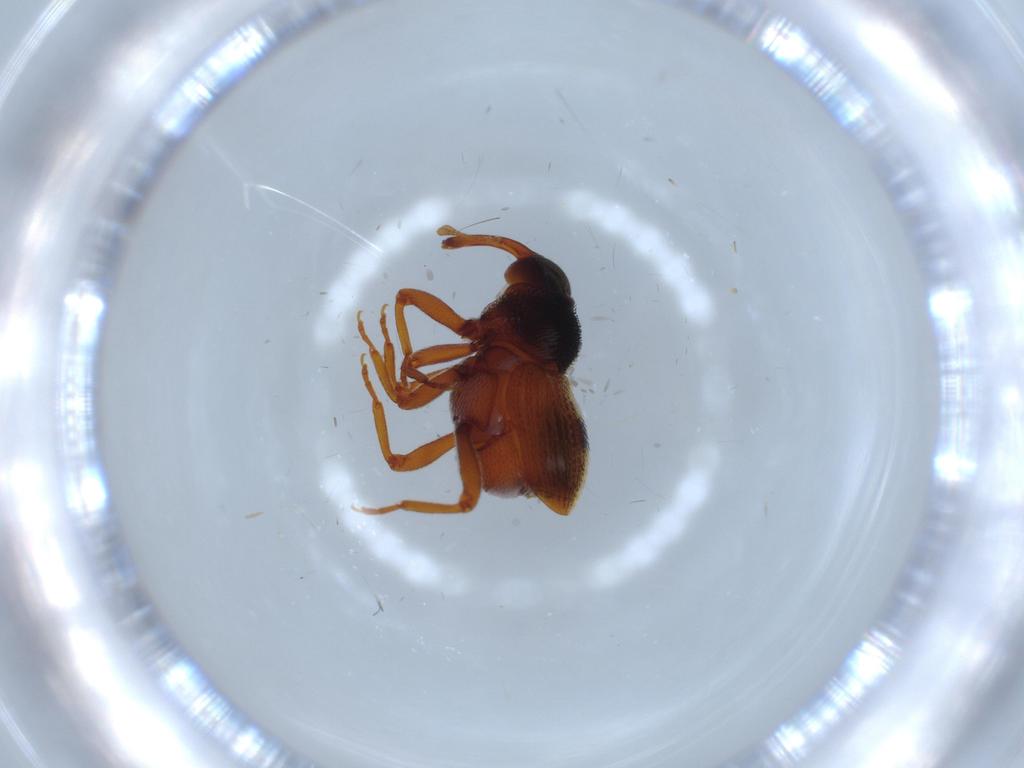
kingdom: Animalia
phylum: Arthropoda
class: Insecta
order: Coleoptera
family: Curculionidae
